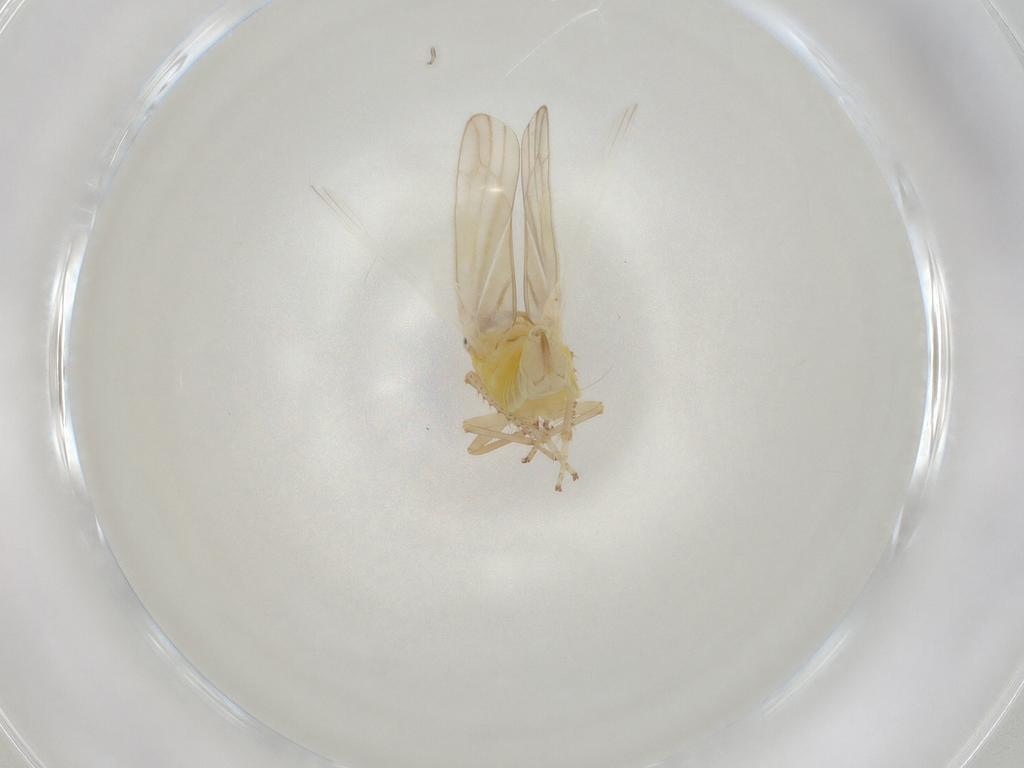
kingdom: Animalia
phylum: Arthropoda
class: Insecta
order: Hemiptera
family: Cicadellidae
